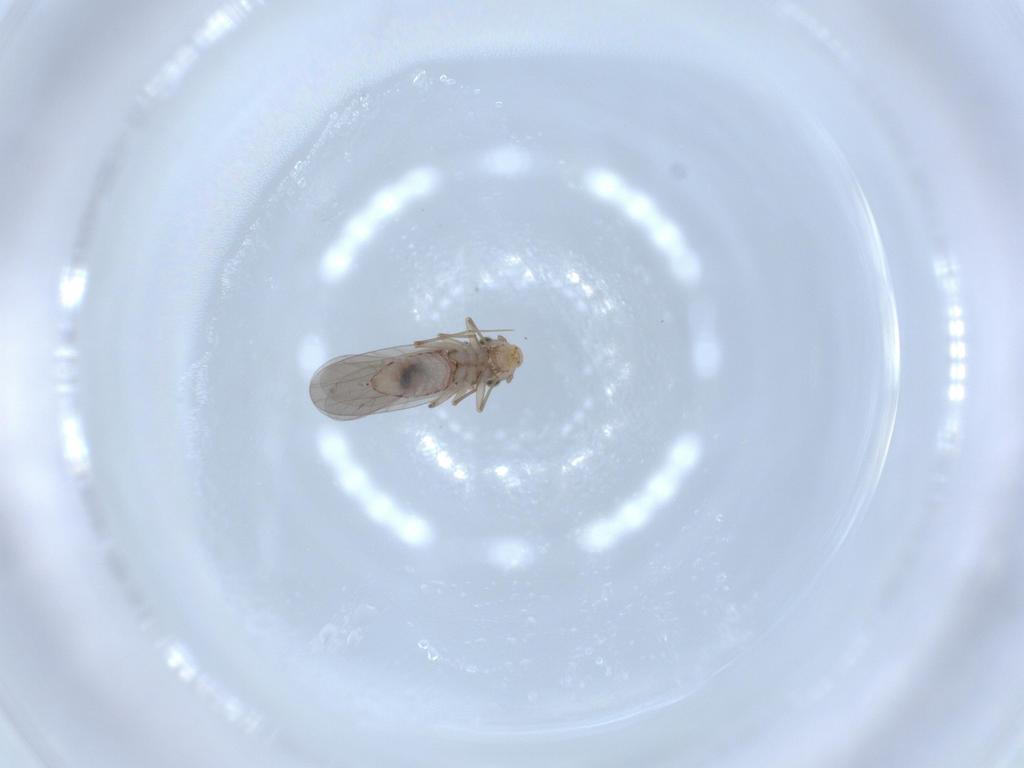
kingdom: Animalia
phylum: Arthropoda
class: Insecta
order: Psocodea
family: Lepidopsocidae
